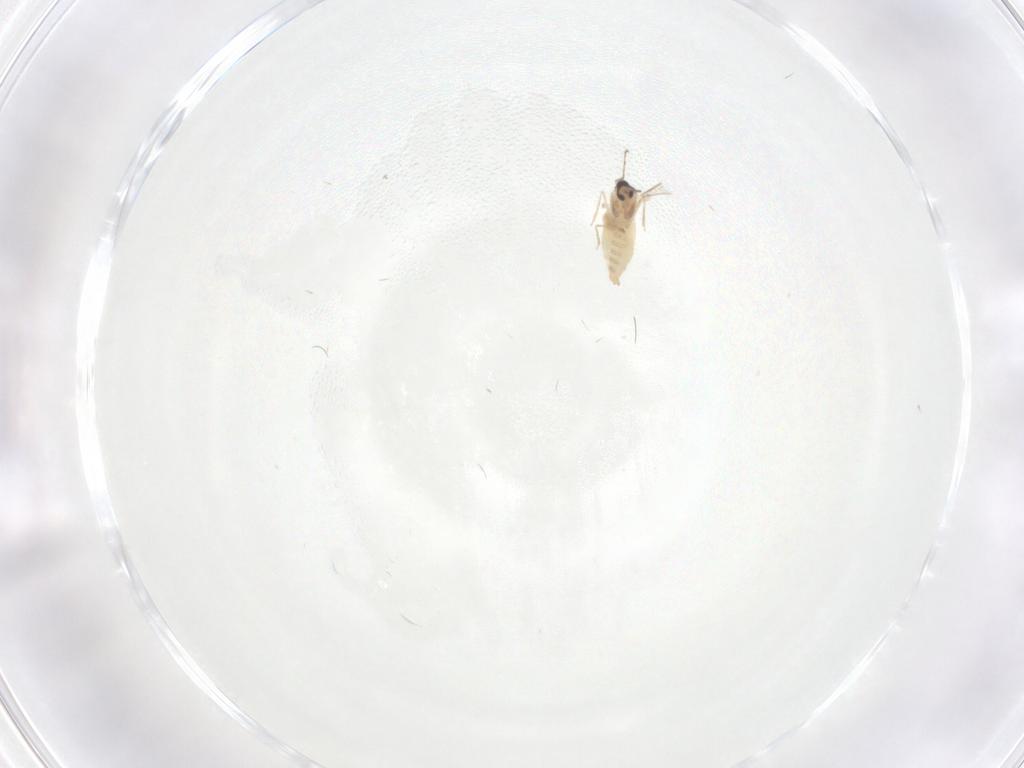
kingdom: Animalia
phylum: Arthropoda
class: Insecta
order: Diptera
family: Cecidomyiidae
